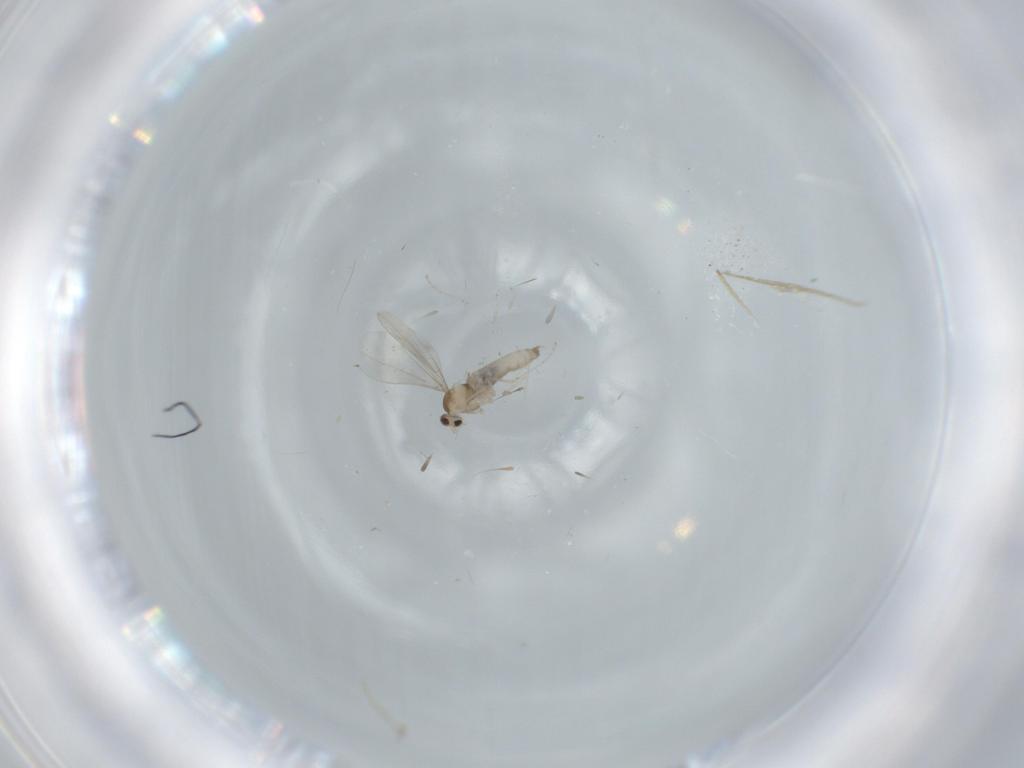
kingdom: Animalia
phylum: Arthropoda
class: Insecta
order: Diptera
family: Cecidomyiidae
